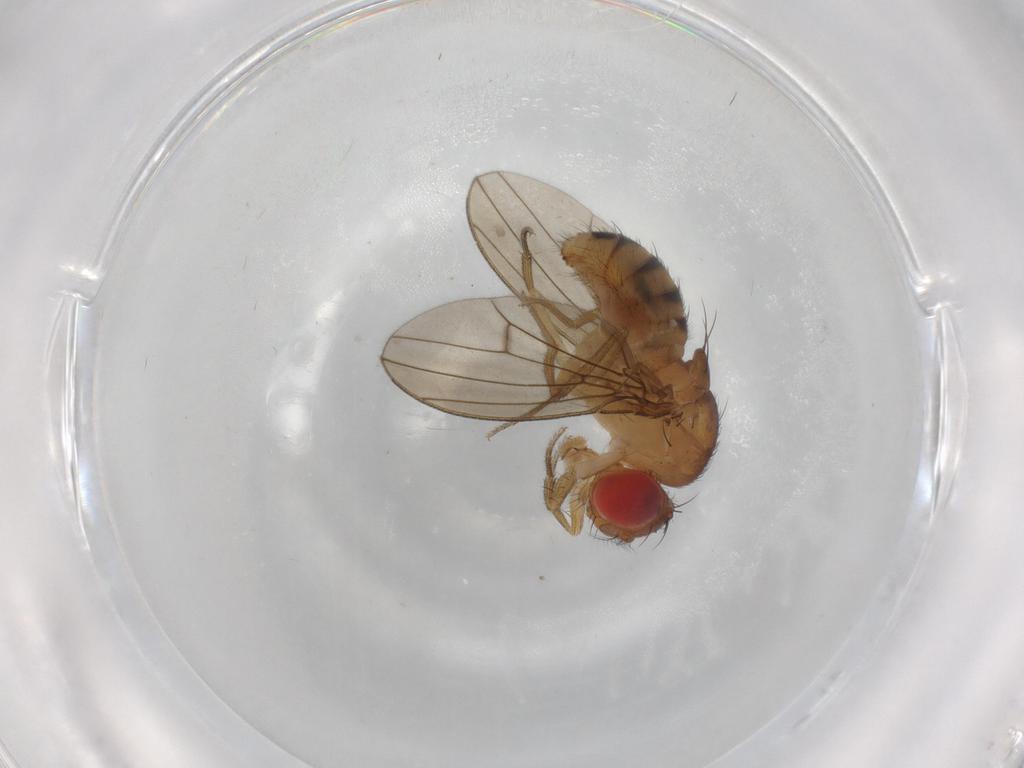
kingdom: Animalia
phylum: Arthropoda
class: Insecta
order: Diptera
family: Drosophilidae
